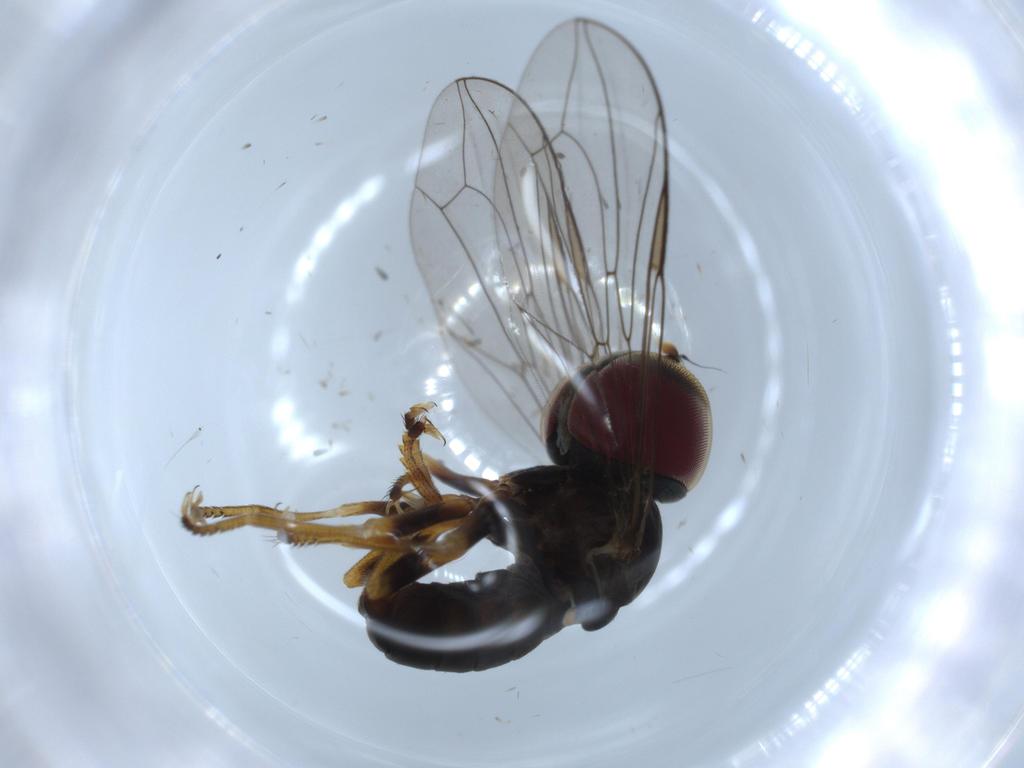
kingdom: Animalia
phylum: Arthropoda
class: Insecta
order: Diptera
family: Pipunculidae
